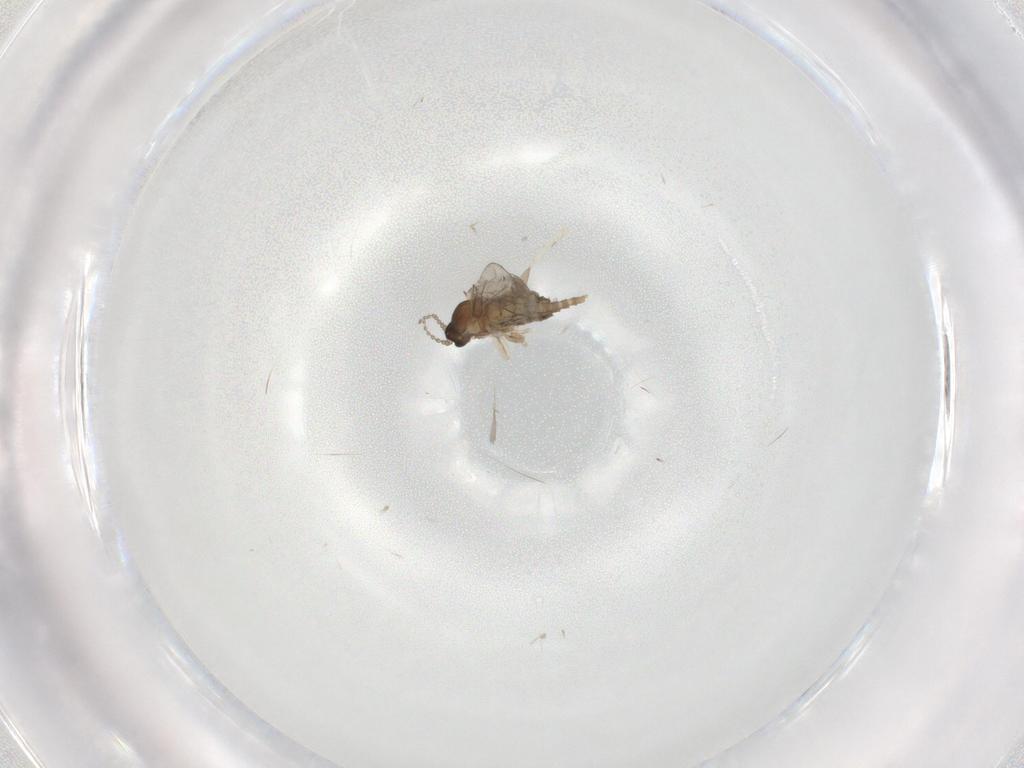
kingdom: Animalia
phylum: Arthropoda
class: Insecta
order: Diptera
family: Cecidomyiidae
